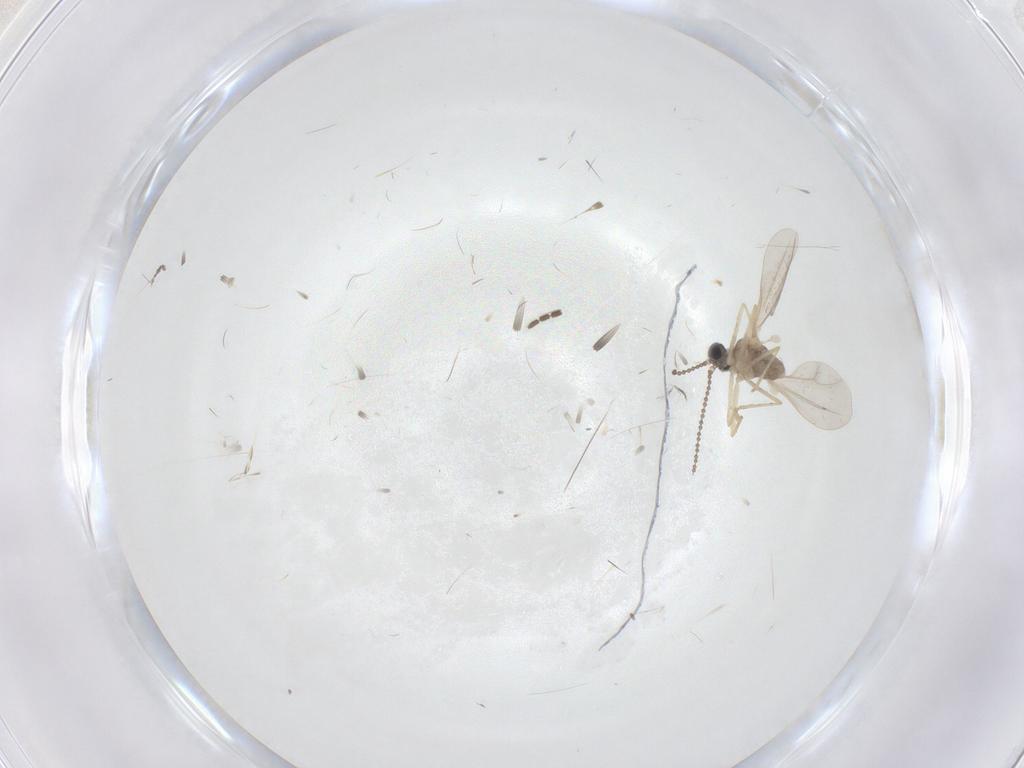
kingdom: Animalia
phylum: Arthropoda
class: Insecta
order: Diptera
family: Cecidomyiidae
